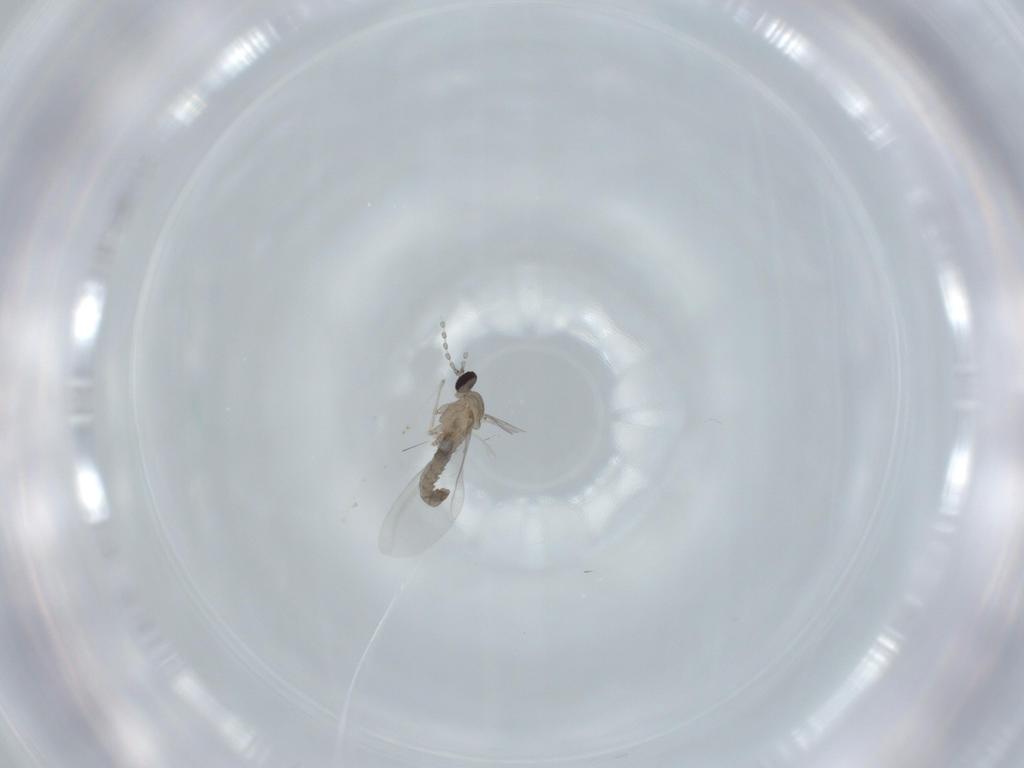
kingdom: Animalia
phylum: Arthropoda
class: Insecta
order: Diptera
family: Cecidomyiidae
